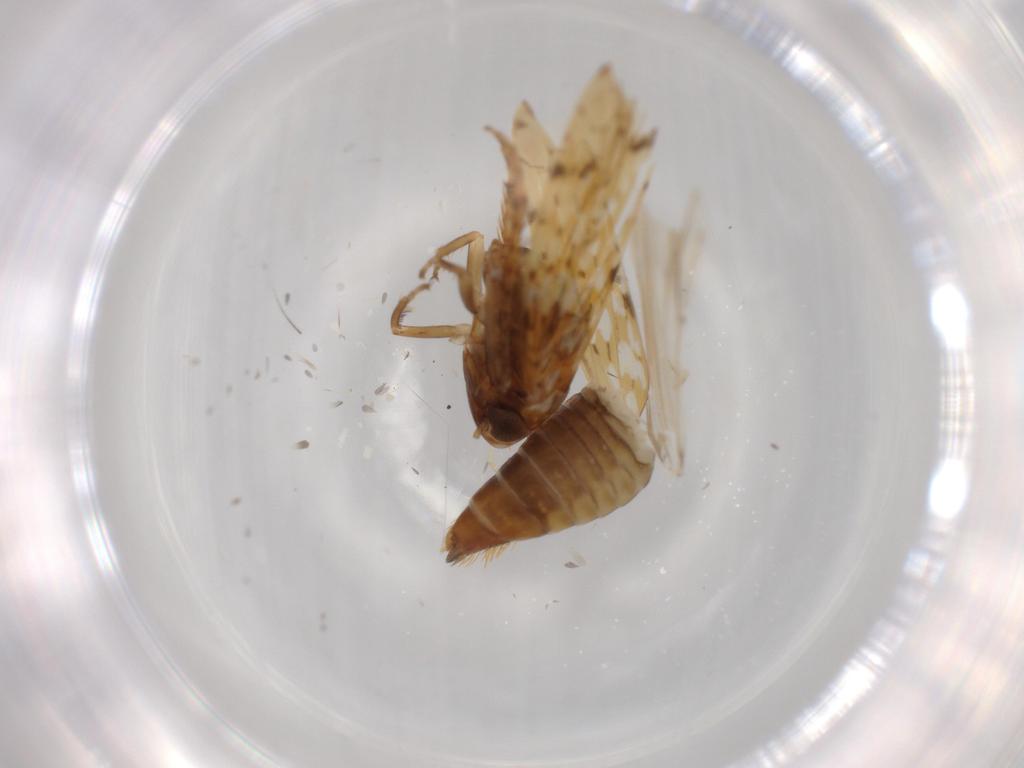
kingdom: Animalia
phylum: Arthropoda
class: Insecta
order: Hemiptera
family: Cicadellidae
